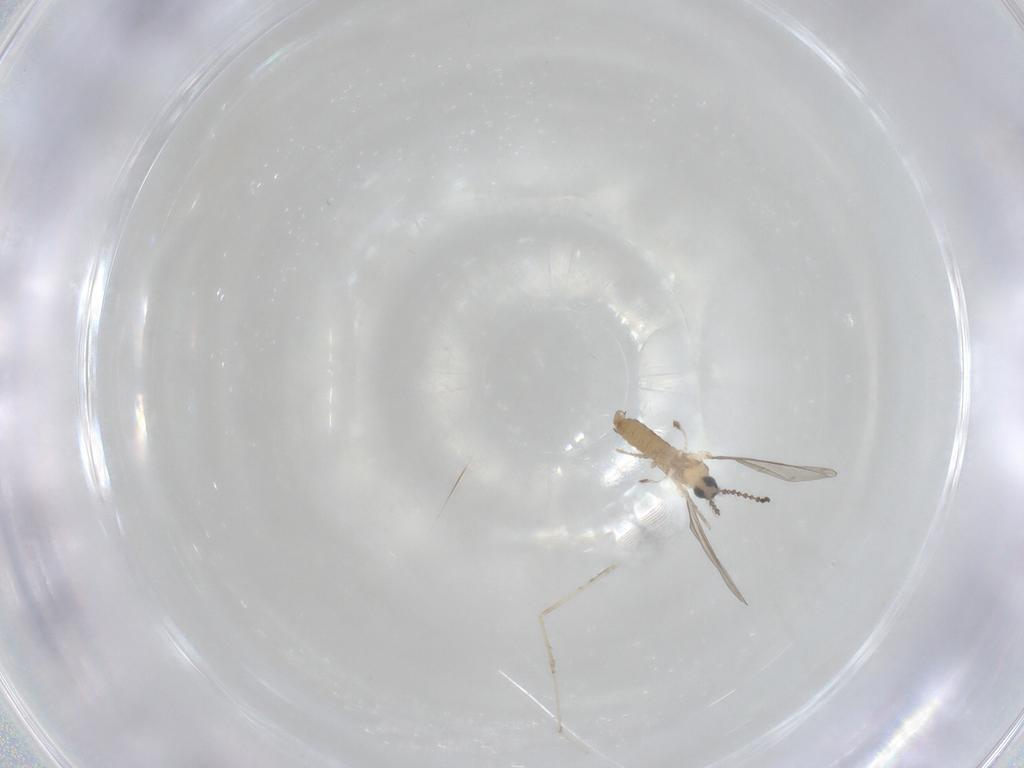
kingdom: Animalia
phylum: Arthropoda
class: Insecta
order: Diptera
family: Cecidomyiidae
